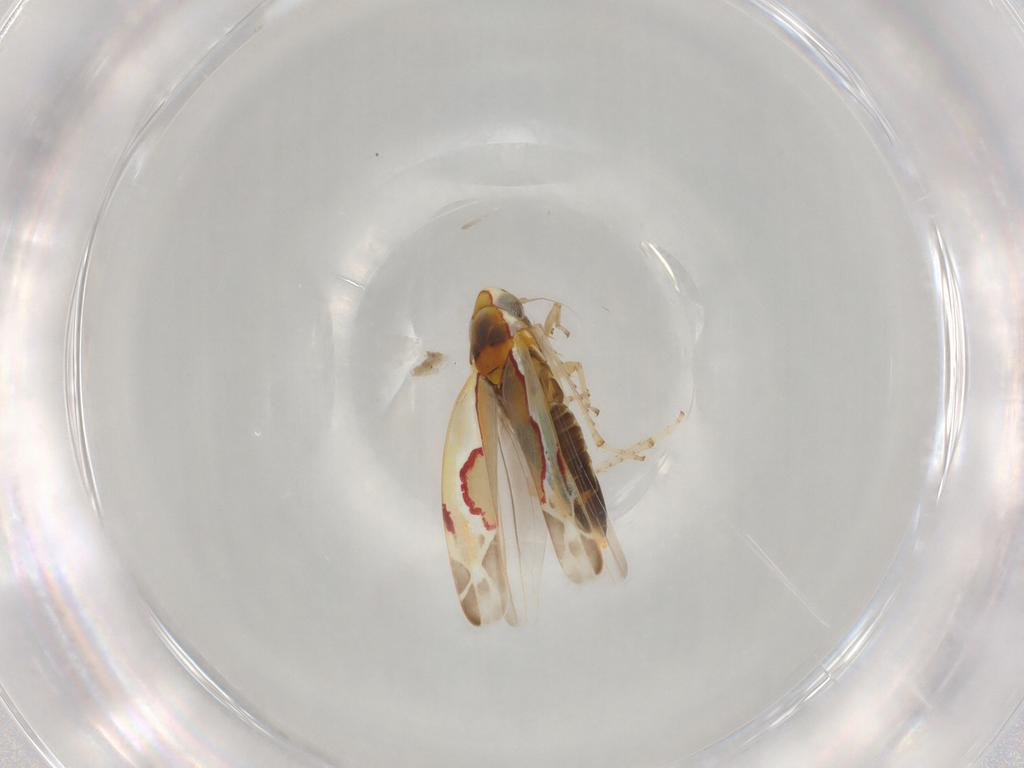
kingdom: Animalia
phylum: Arthropoda
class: Insecta
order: Hemiptera
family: Cicadellidae
